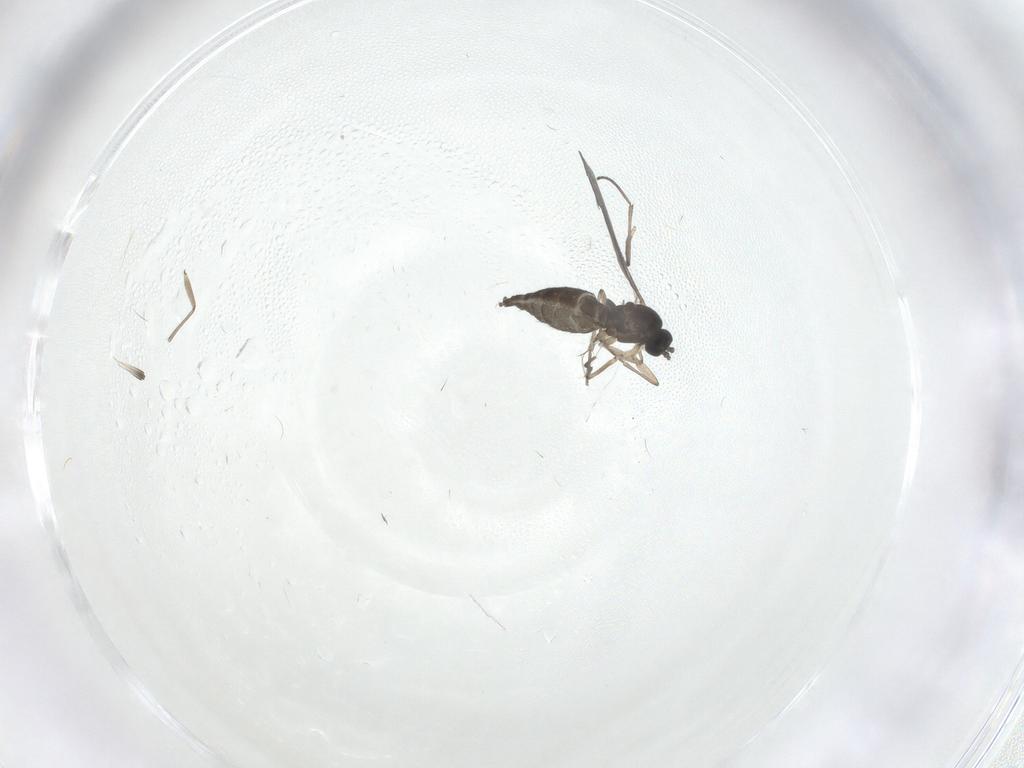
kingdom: Animalia
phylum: Arthropoda
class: Insecta
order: Diptera
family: Sciaridae
